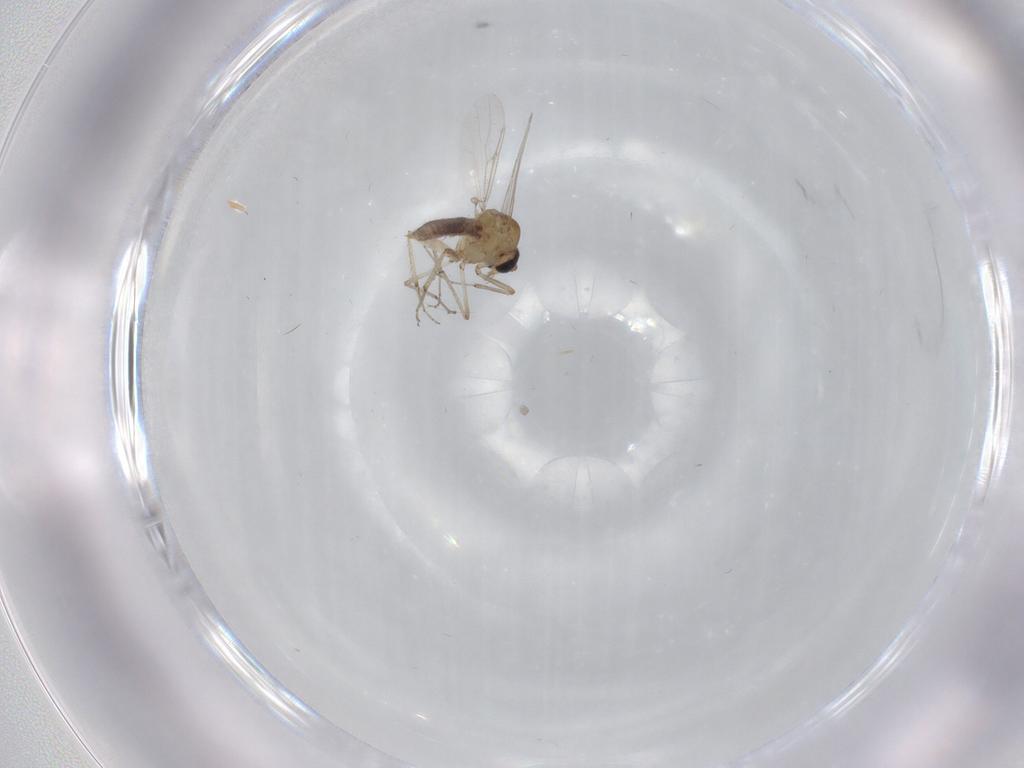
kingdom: Animalia
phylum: Arthropoda
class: Insecta
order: Diptera
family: Ceratopogonidae
